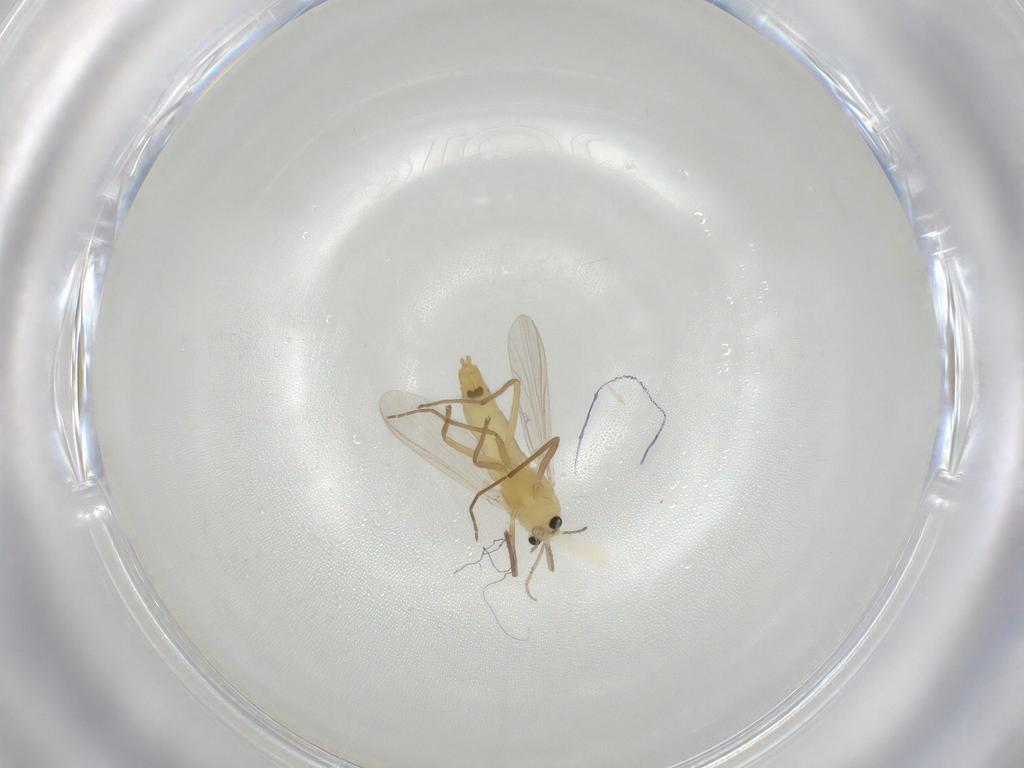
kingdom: Animalia
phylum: Arthropoda
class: Insecta
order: Diptera
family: Chironomidae
